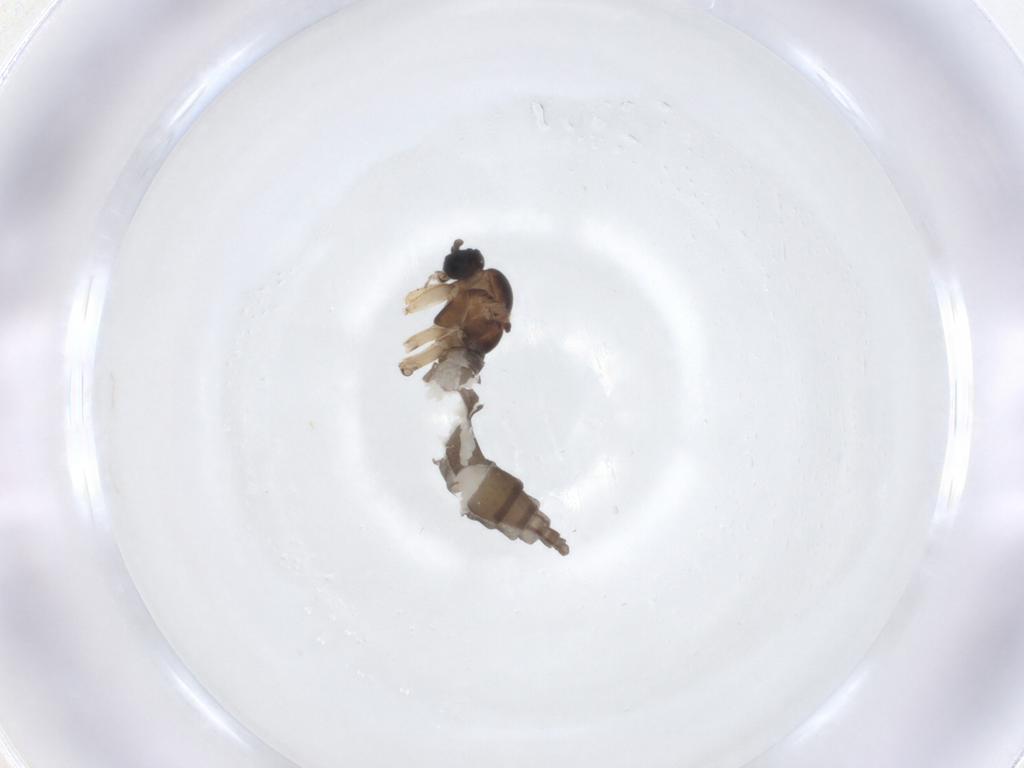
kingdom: Animalia
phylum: Arthropoda
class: Insecta
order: Diptera
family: Sciaridae
